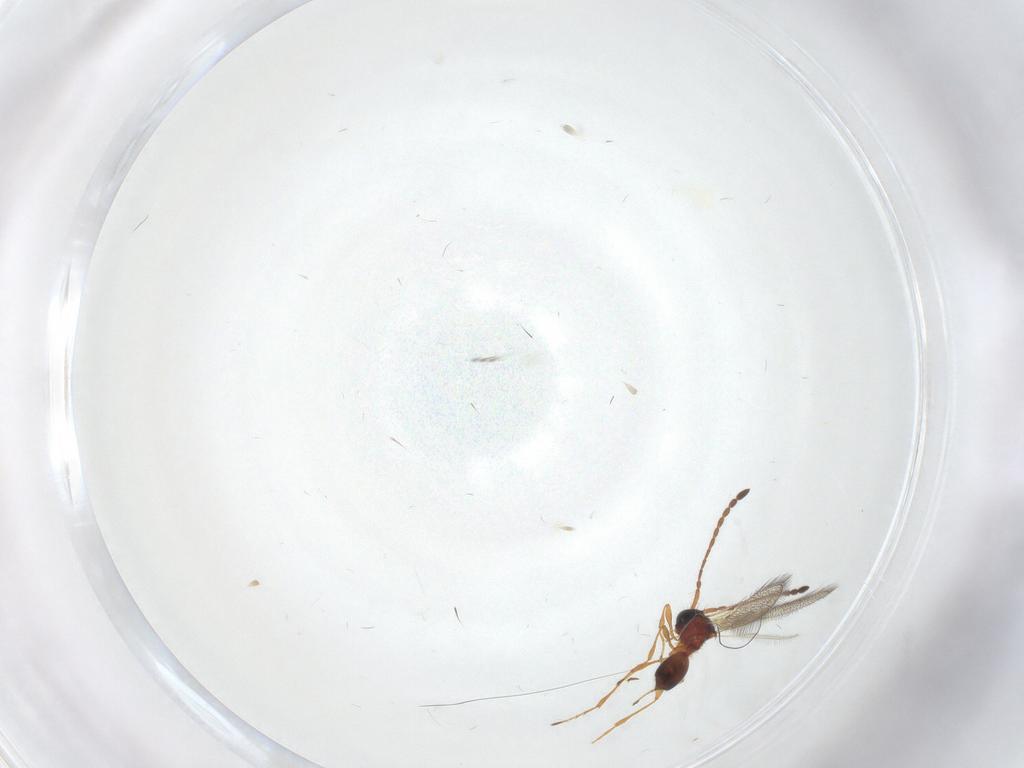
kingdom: Animalia
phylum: Arthropoda
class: Insecta
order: Hymenoptera
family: Diapriidae
